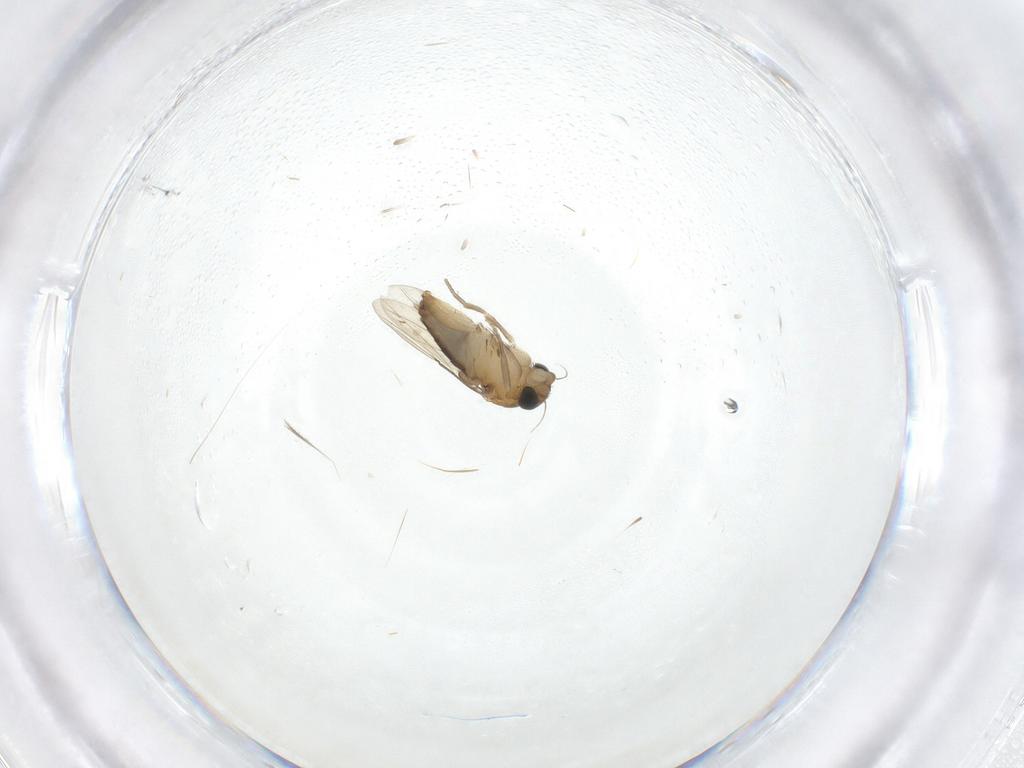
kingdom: Animalia
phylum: Arthropoda
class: Insecta
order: Diptera
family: Phoridae
